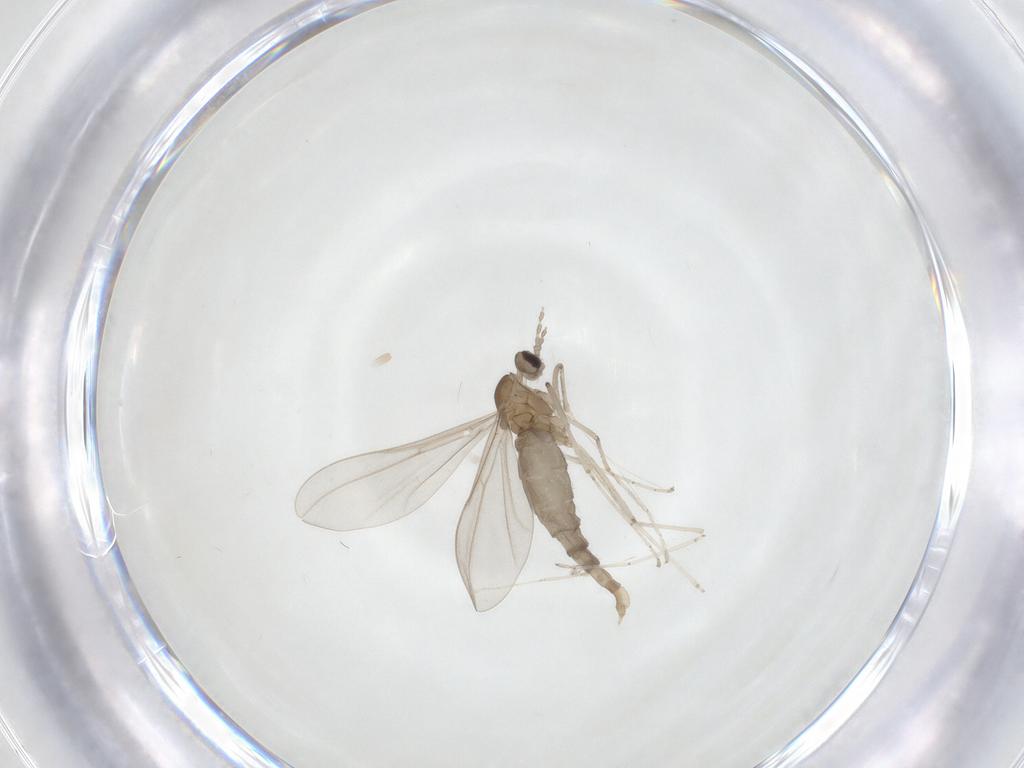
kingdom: Animalia
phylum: Arthropoda
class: Insecta
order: Diptera
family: Cecidomyiidae
